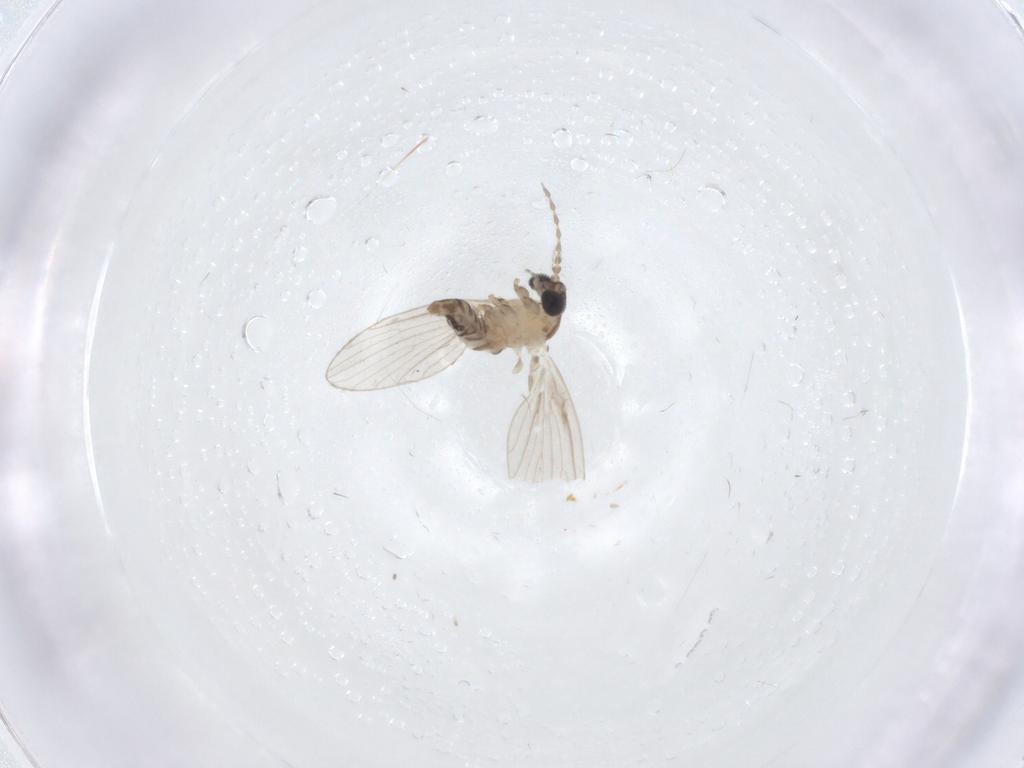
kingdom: Animalia
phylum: Arthropoda
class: Insecta
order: Diptera
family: Psychodidae
